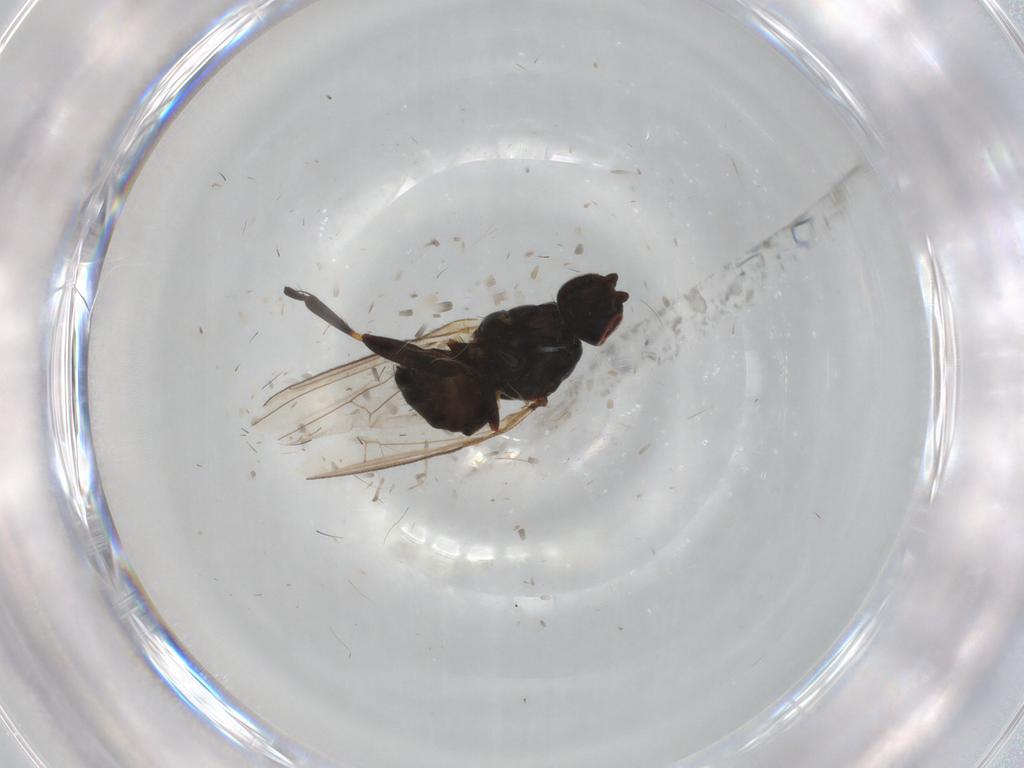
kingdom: Animalia
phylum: Arthropoda
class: Insecta
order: Diptera
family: Sphaeroceridae
